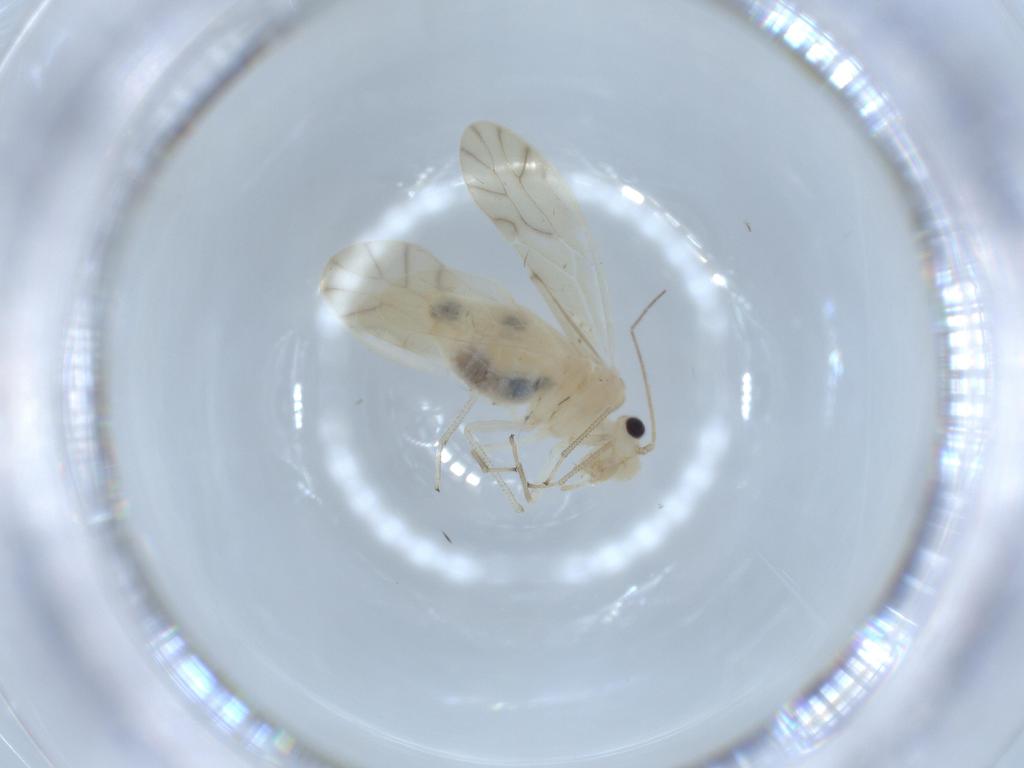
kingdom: Animalia
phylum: Arthropoda
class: Insecta
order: Psocodea
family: Caeciliusidae
